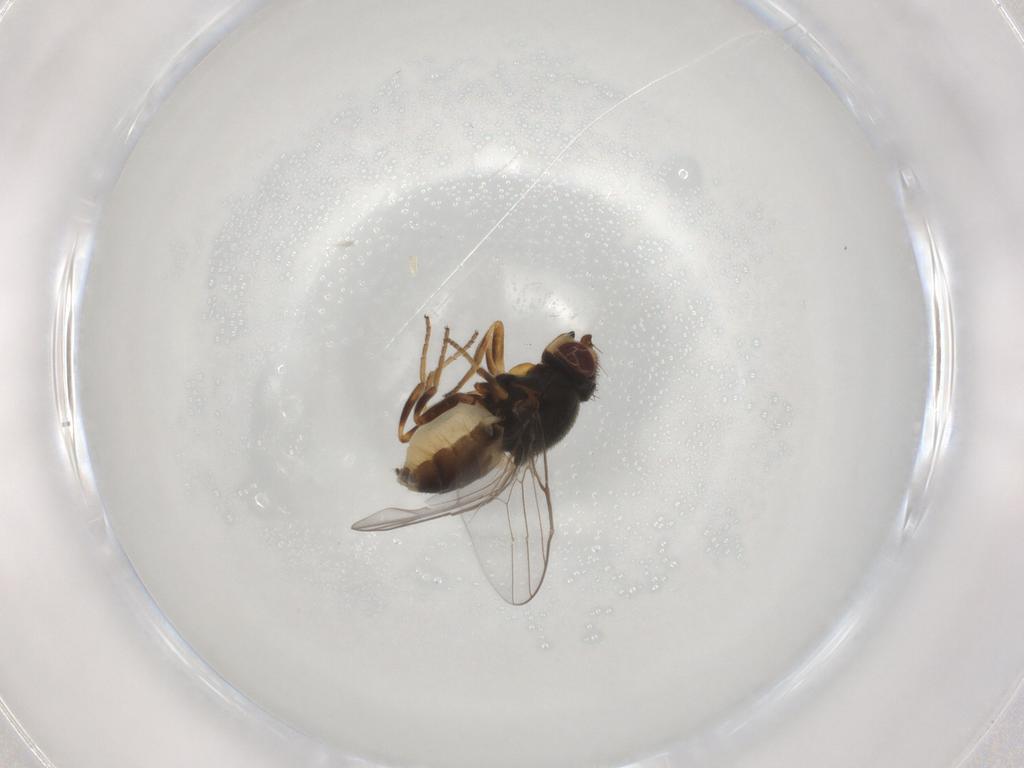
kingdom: Animalia
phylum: Arthropoda
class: Insecta
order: Diptera
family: Chloropidae
